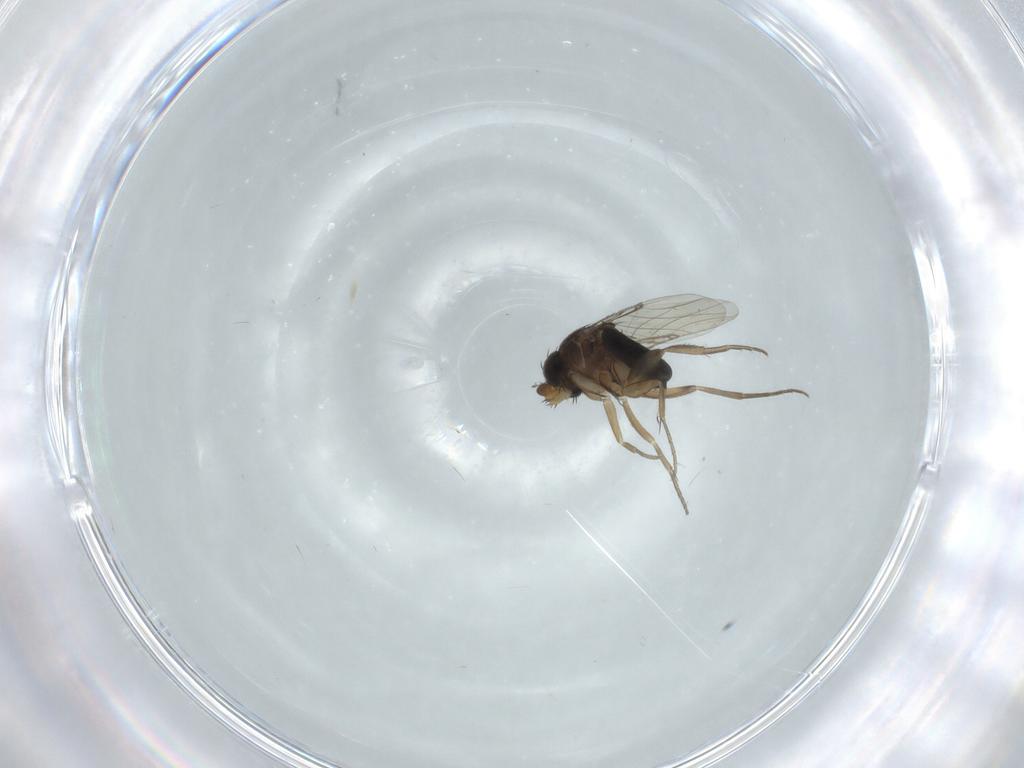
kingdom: Animalia
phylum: Arthropoda
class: Insecta
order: Diptera
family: Phoridae
